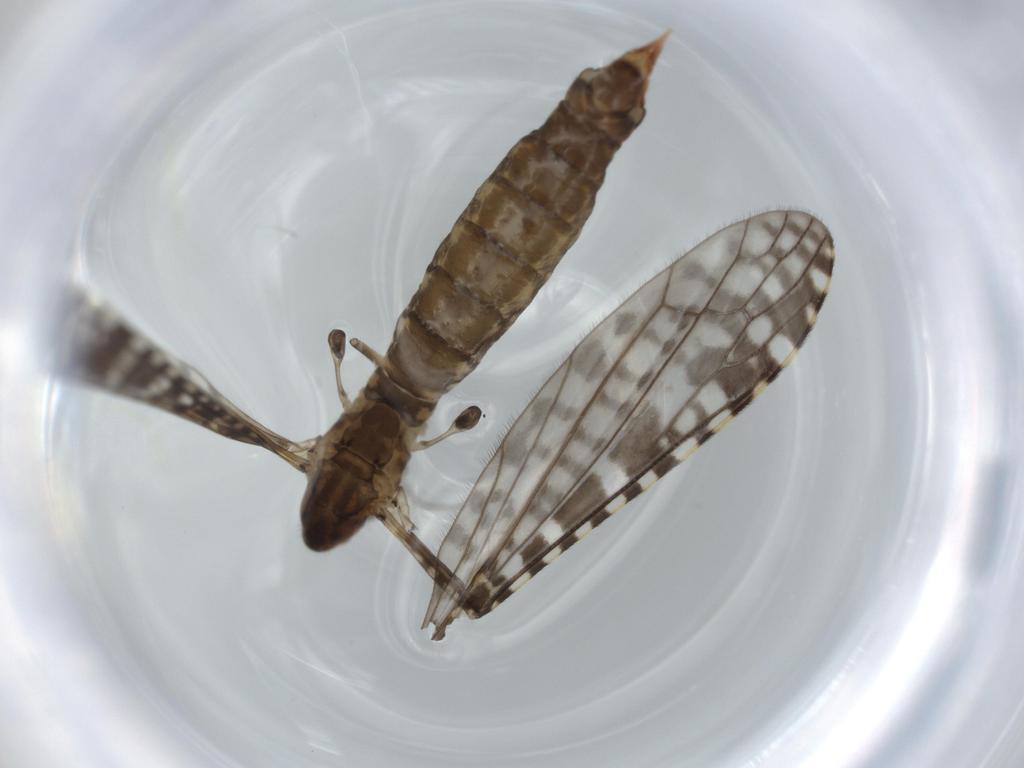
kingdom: Animalia
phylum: Arthropoda
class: Insecta
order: Diptera
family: Limoniidae
